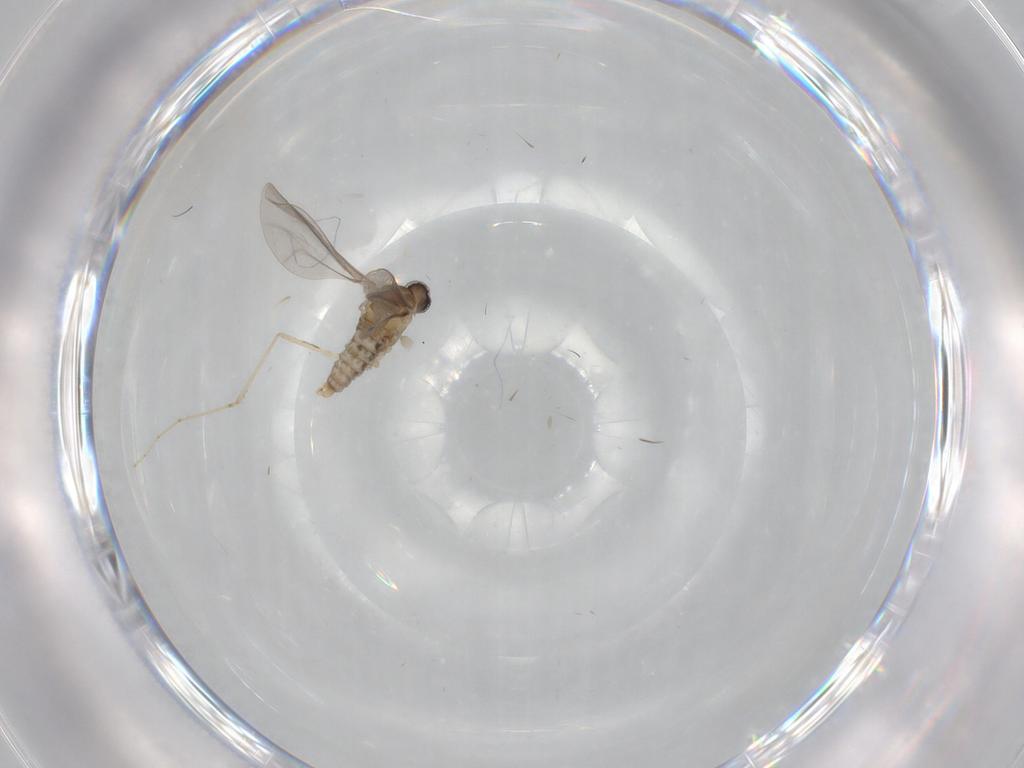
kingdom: Animalia
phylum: Arthropoda
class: Insecta
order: Diptera
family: Cecidomyiidae
